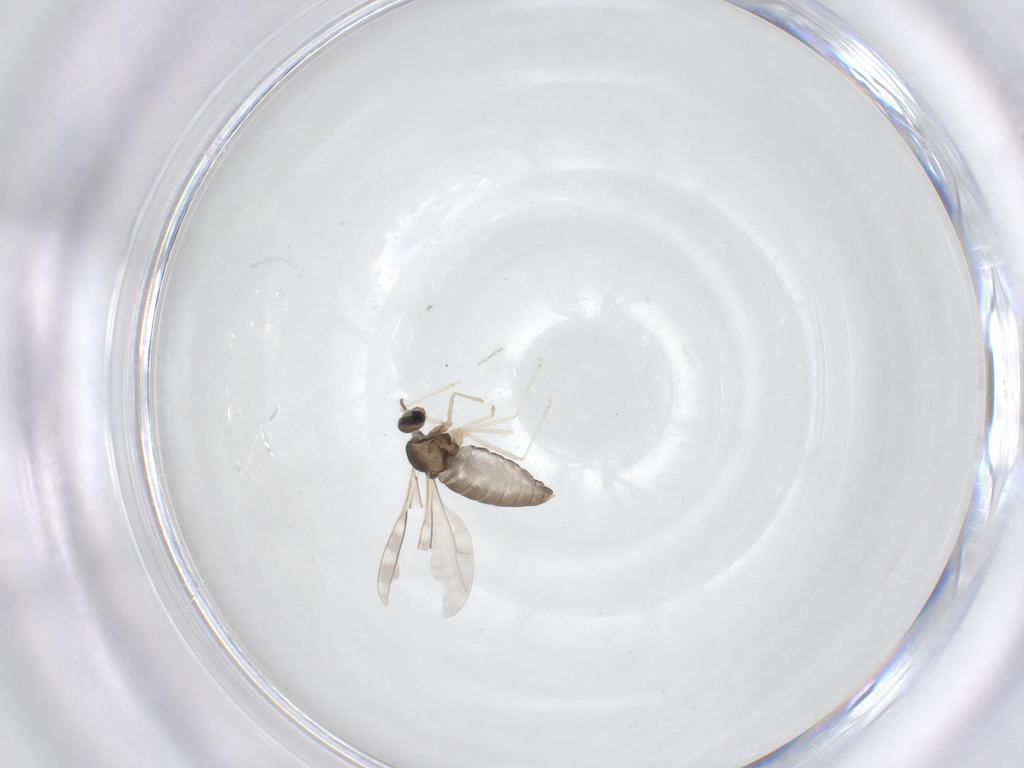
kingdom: Animalia
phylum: Arthropoda
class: Insecta
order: Diptera
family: Cecidomyiidae
